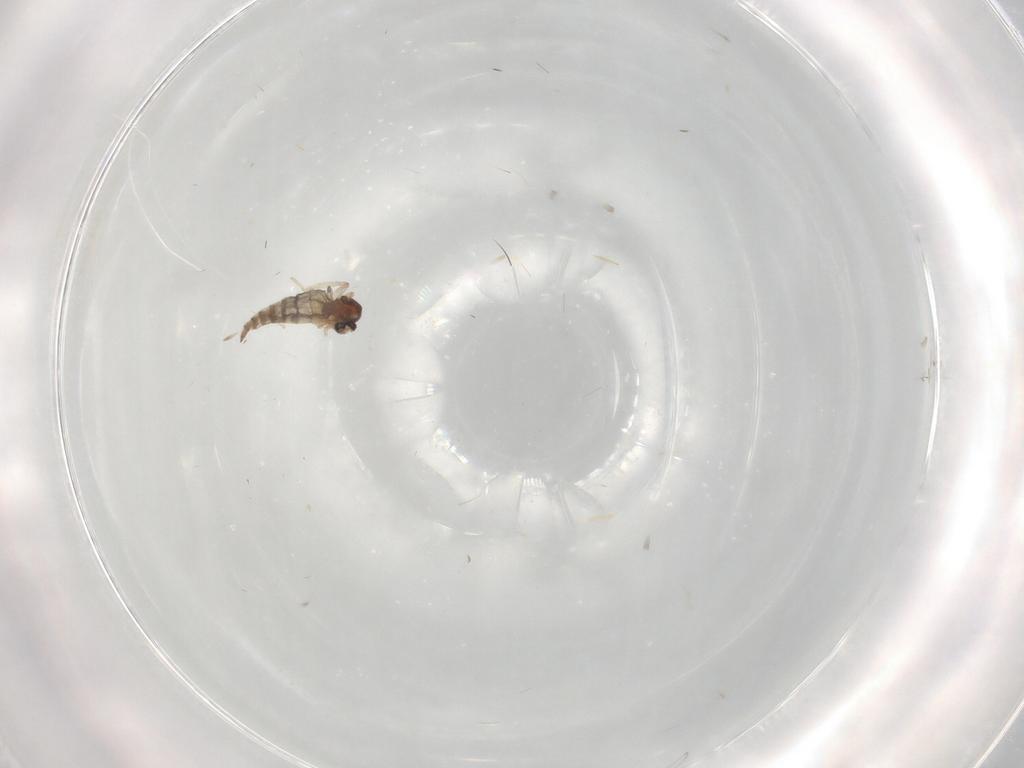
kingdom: Animalia
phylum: Arthropoda
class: Insecta
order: Diptera
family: Cecidomyiidae
